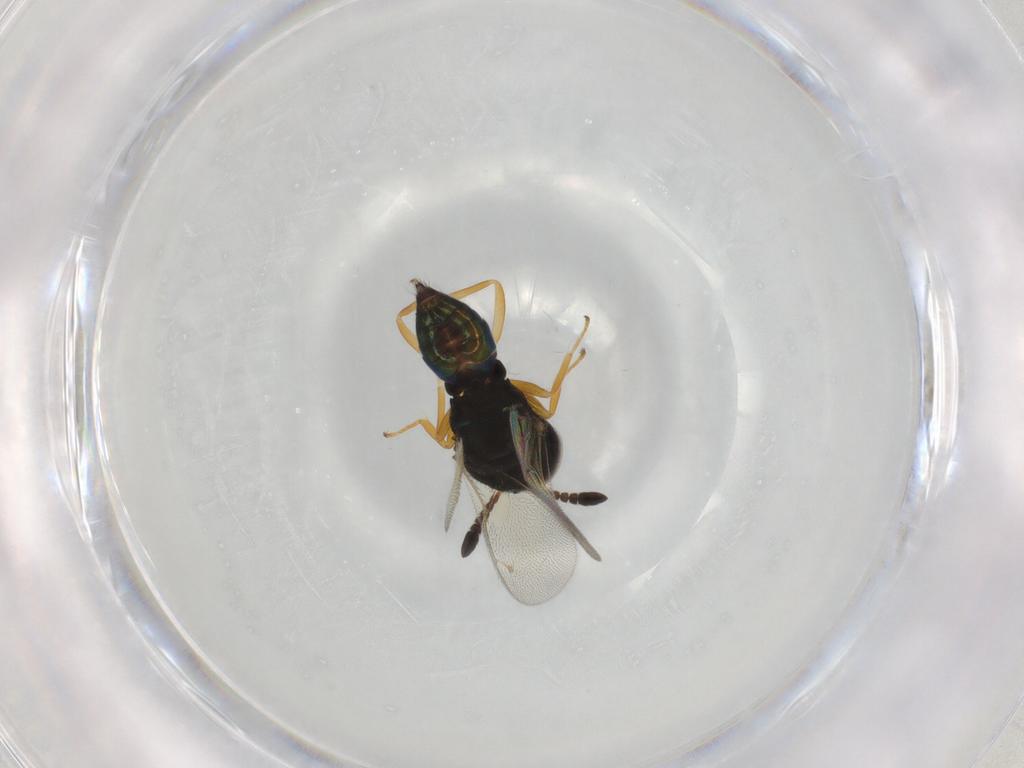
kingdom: Animalia
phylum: Arthropoda
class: Insecta
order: Hymenoptera
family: Pteromalidae
